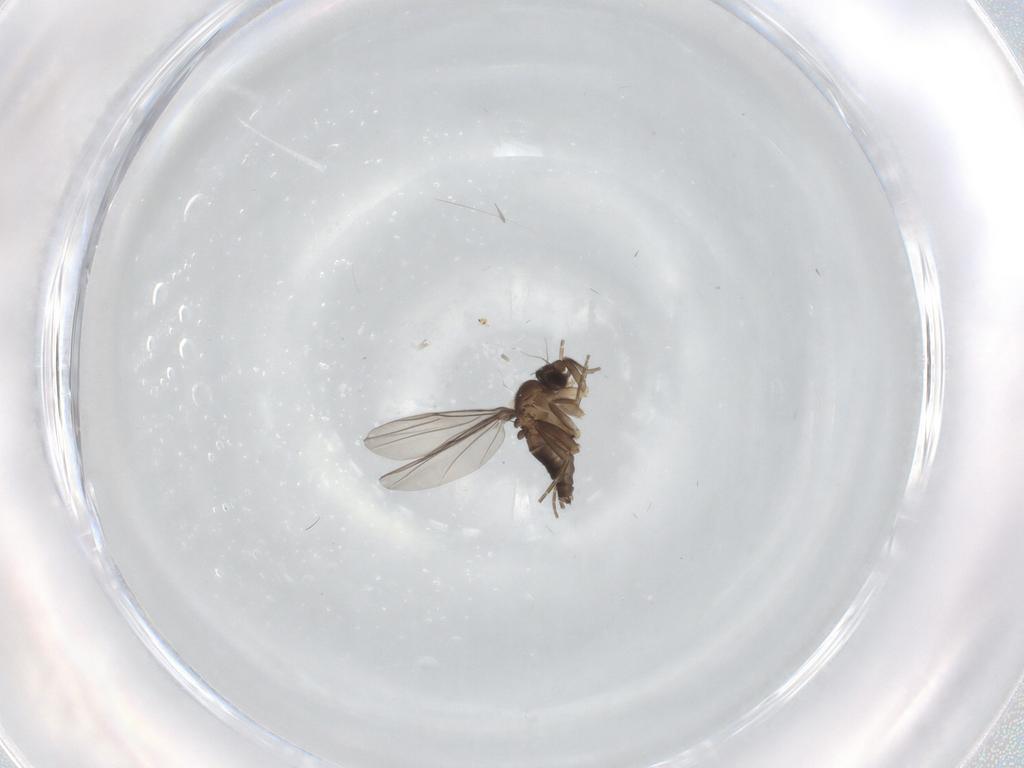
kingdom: Animalia
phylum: Arthropoda
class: Insecta
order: Diptera
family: Phoridae
